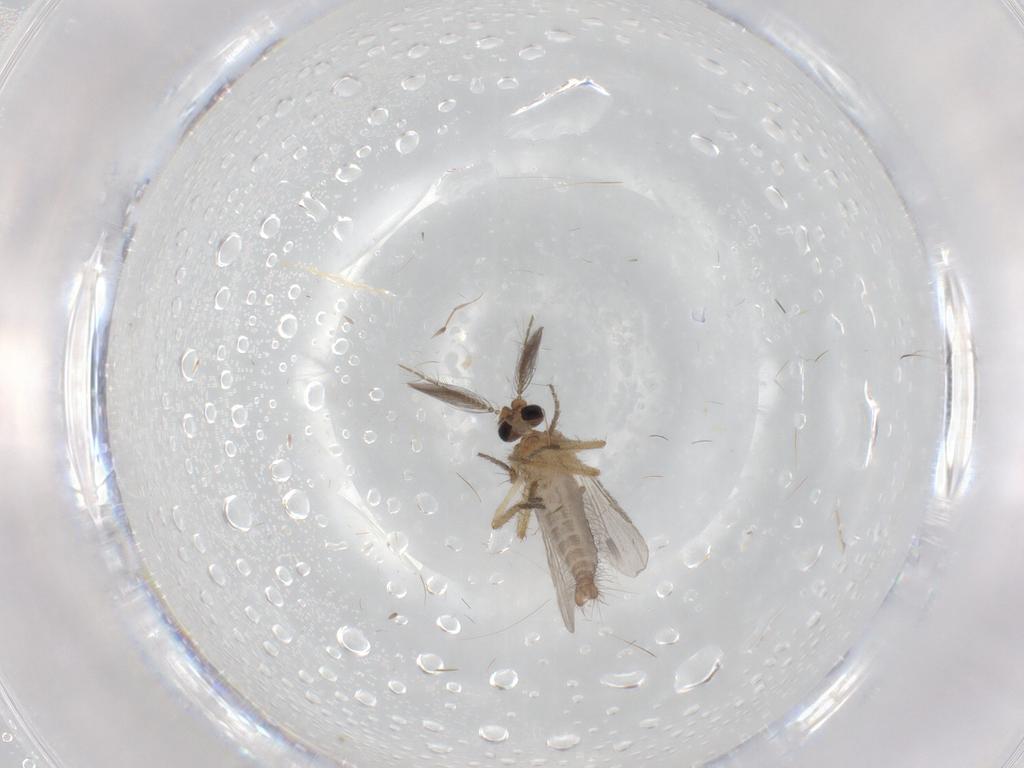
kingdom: Animalia
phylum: Arthropoda
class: Insecta
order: Diptera
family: Ceratopogonidae
